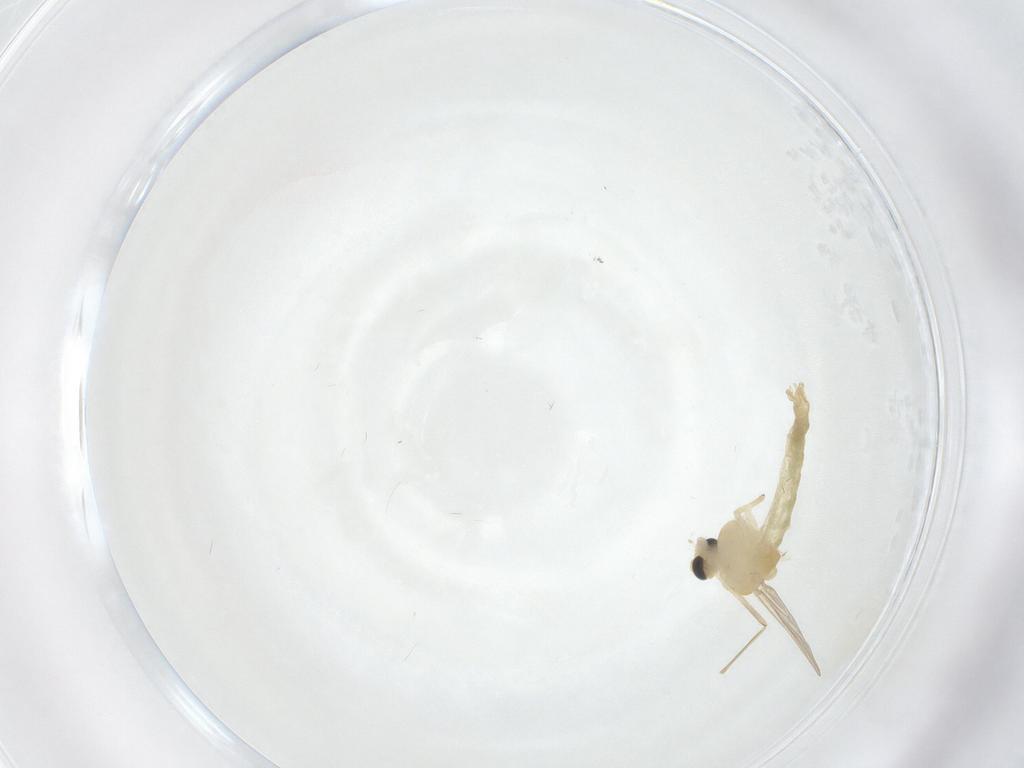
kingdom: Animalia
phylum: Arthropoda
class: Insecta
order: Diptera
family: Chironomidae
